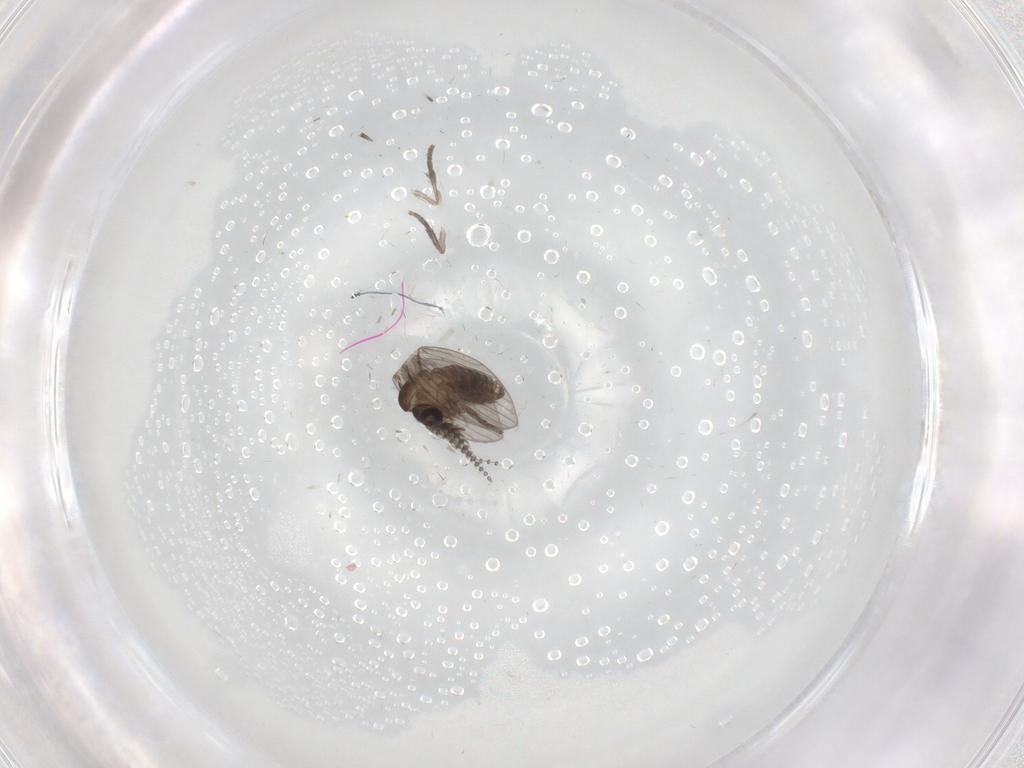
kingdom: Animalia
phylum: Arthropoda
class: Insecta
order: Diptera
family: Psychodidae
